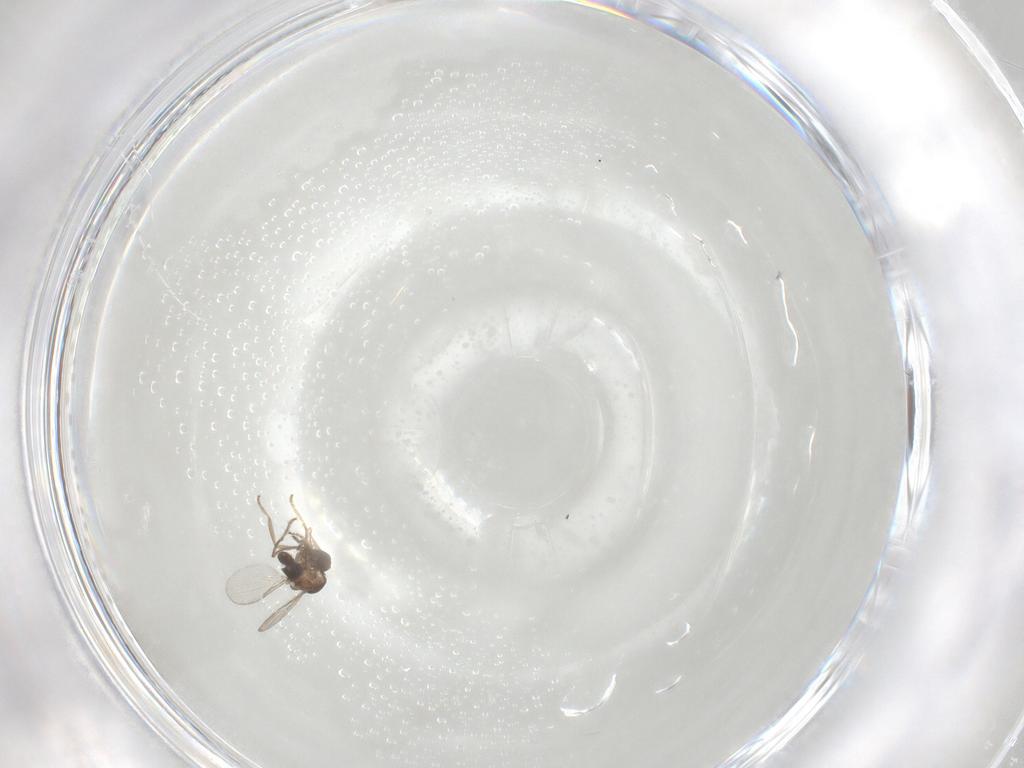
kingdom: Animalia
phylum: Arthropoda
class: Insecta
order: Diptera
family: Ceratopogonidae
